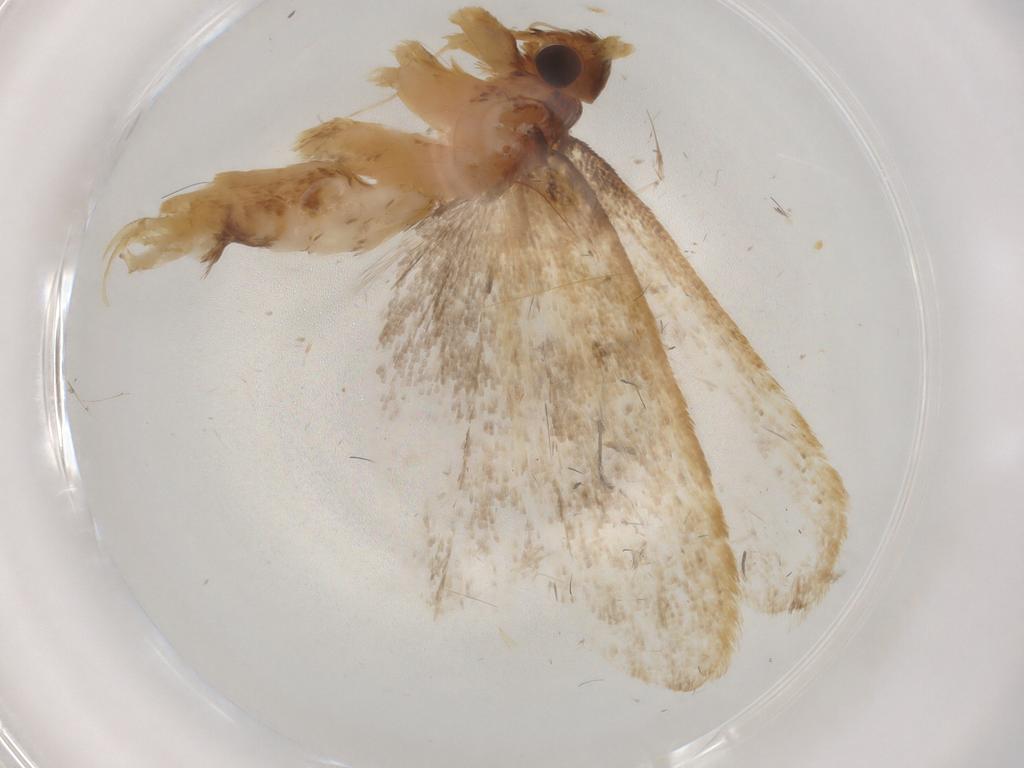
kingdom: Animalia
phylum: Arthropoda
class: Insecta
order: Lepidoptera
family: Lecithoceridae
